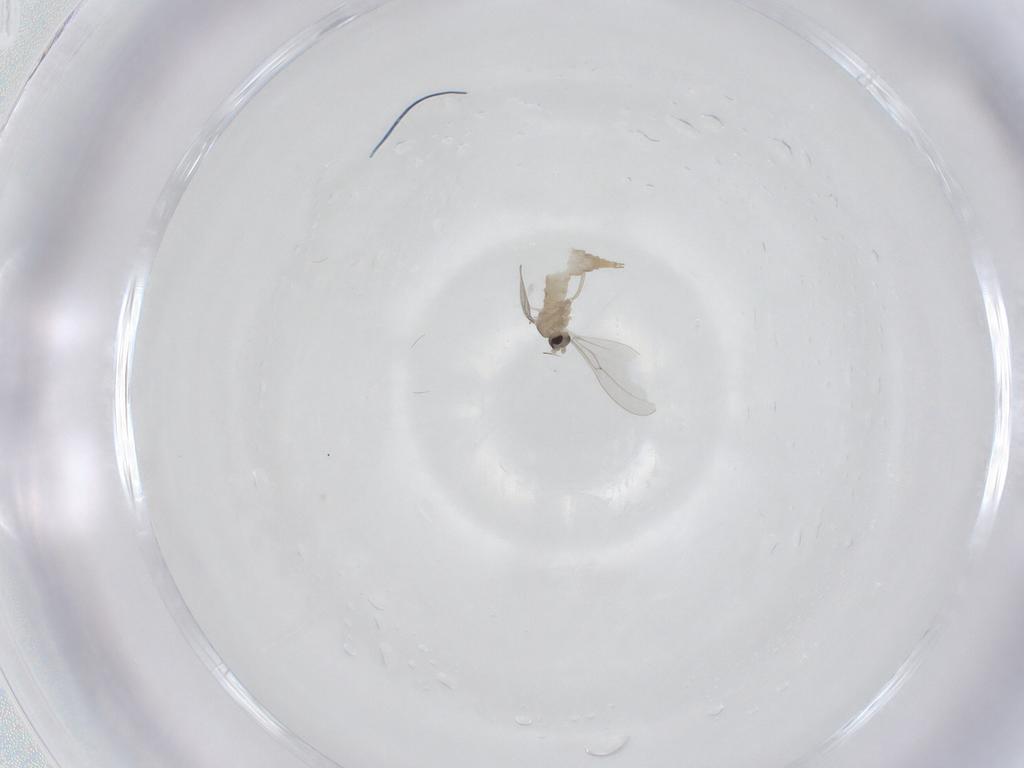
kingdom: Animalia
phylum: Arthropoda
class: Insecta
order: Diptera
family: Cecidomyiidae
